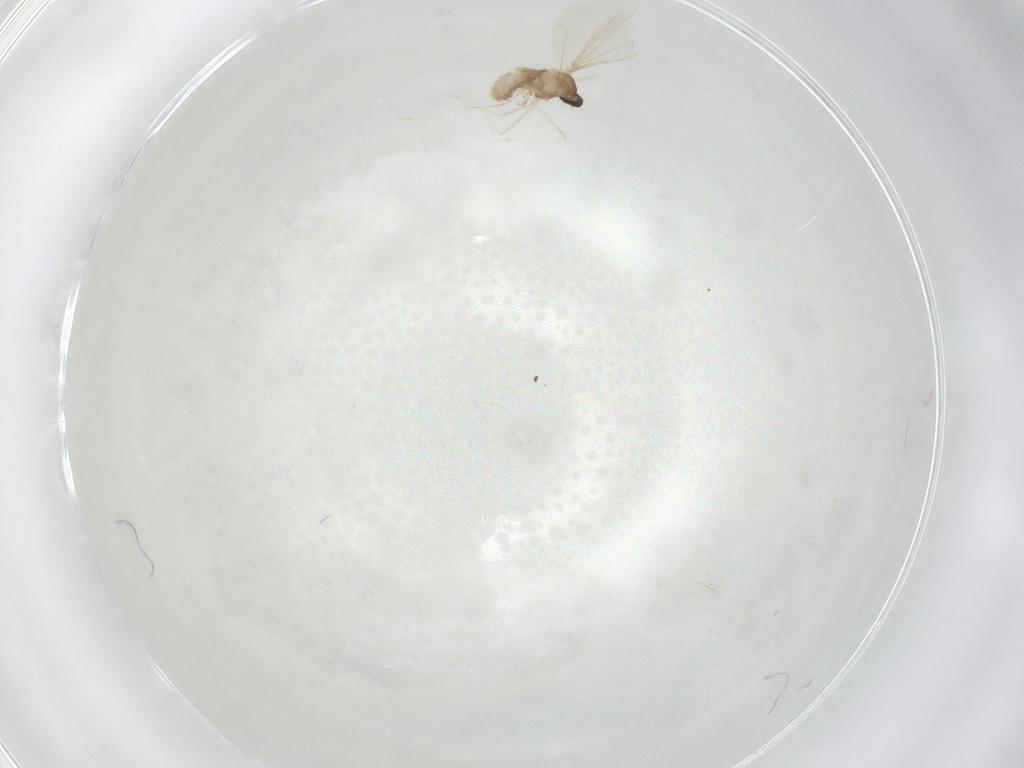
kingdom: Animalia
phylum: Arthropoda
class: Insecta
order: Diptera
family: Cecidomyiidae
